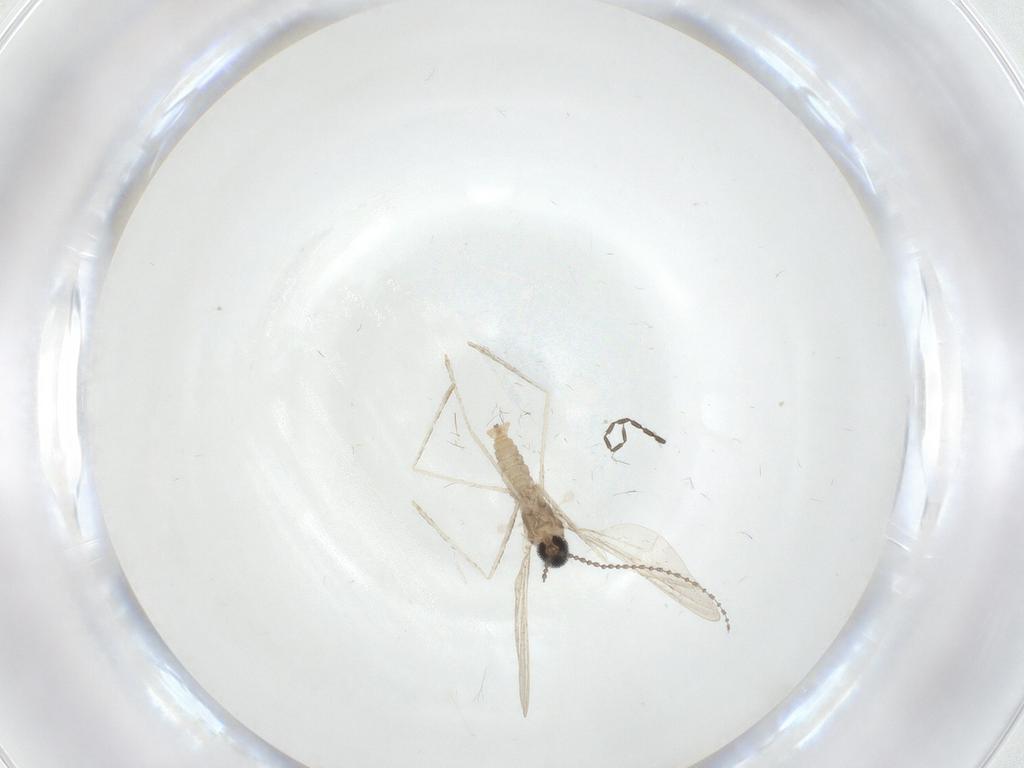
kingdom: Animalia
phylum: Arthropoda
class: Insecta
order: Diptera
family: Cecidomyiidae
